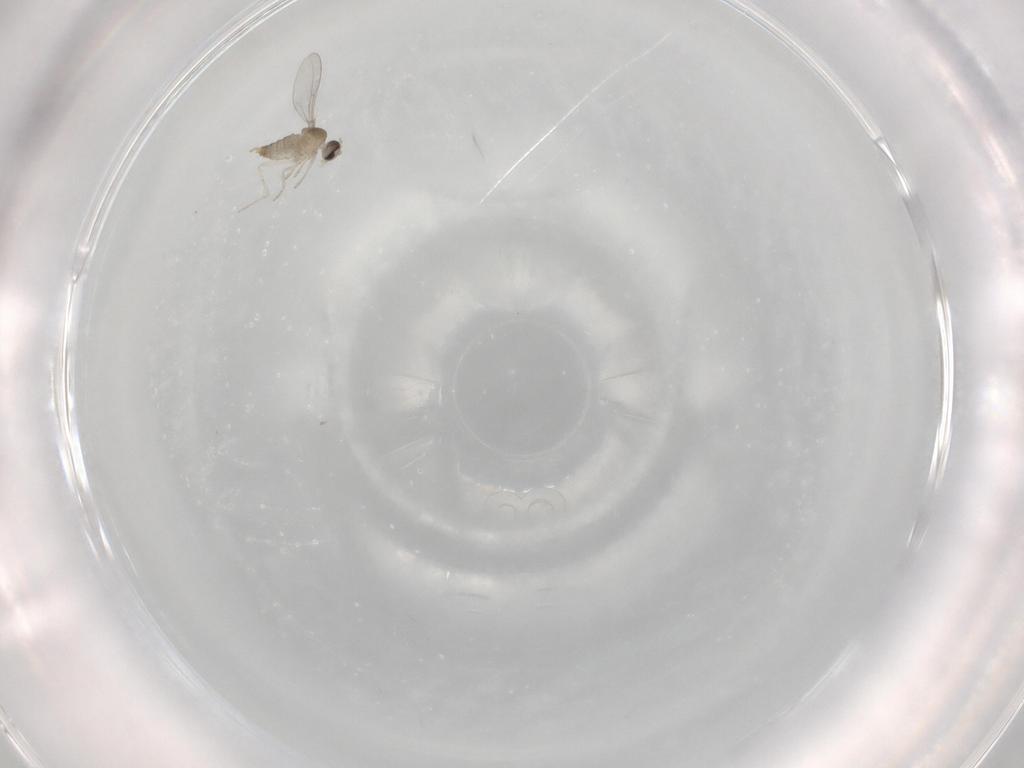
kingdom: Animalia
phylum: Arthropoda
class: Insecta
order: Diptera
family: Cecidomyiidae
